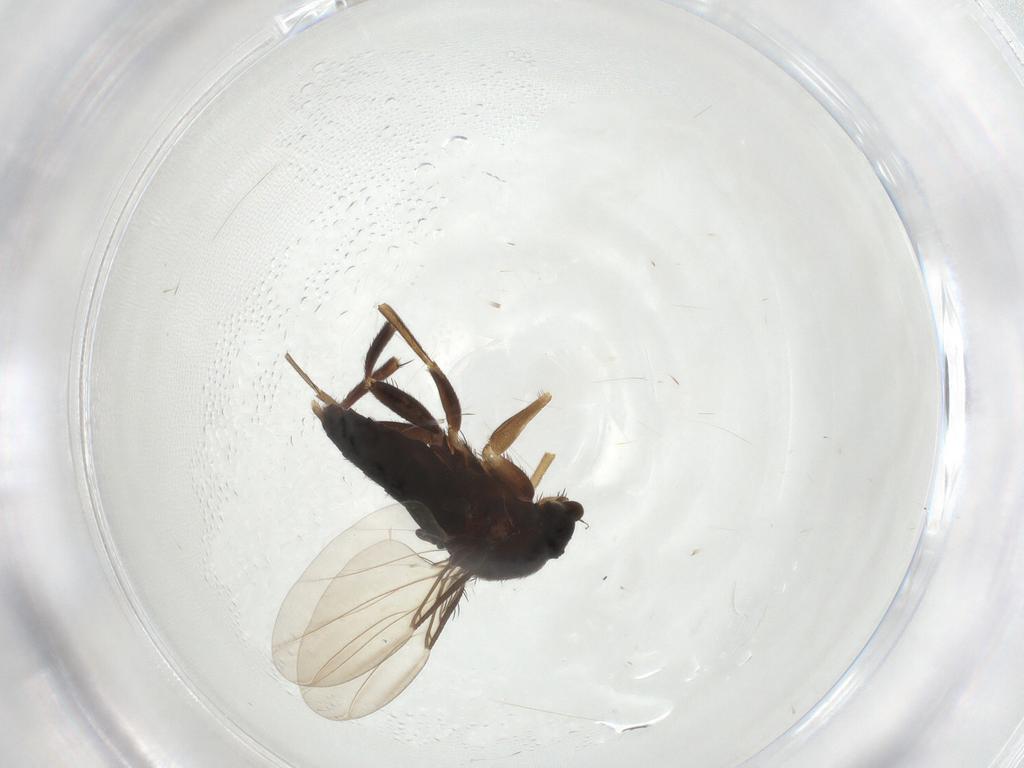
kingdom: Animalia
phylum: Arthropoda
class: Insecta
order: Diptera
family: Phoridae
